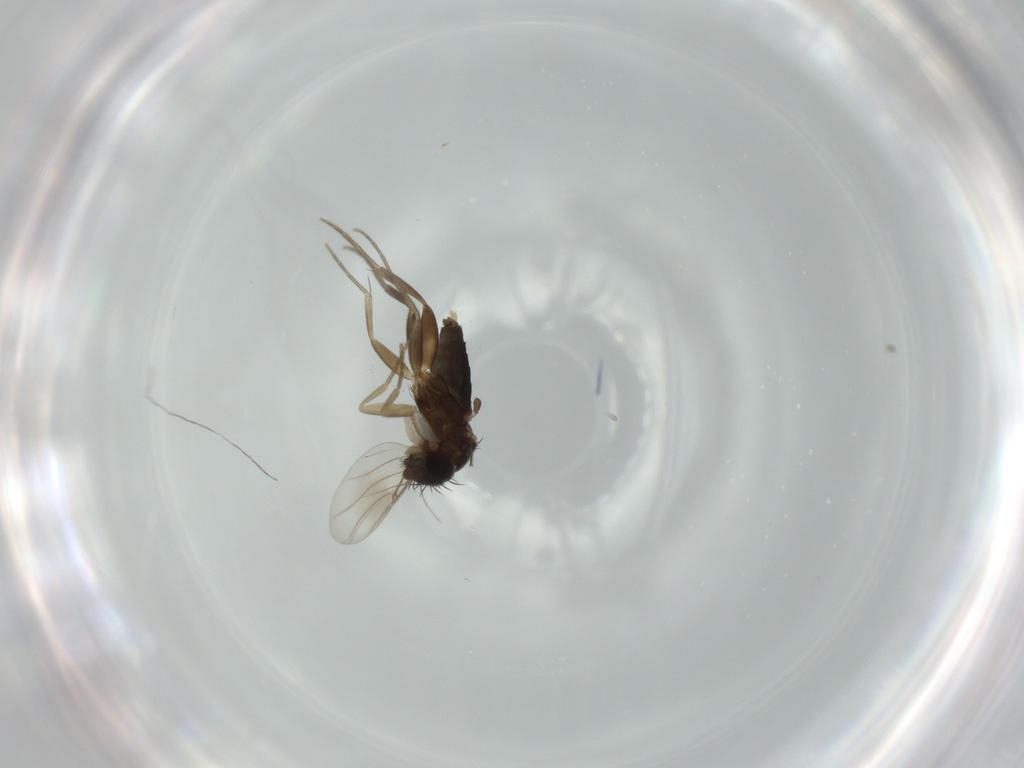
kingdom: Animalia
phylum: Arthropoda
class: Insecta
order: Diptera
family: Phoridae
